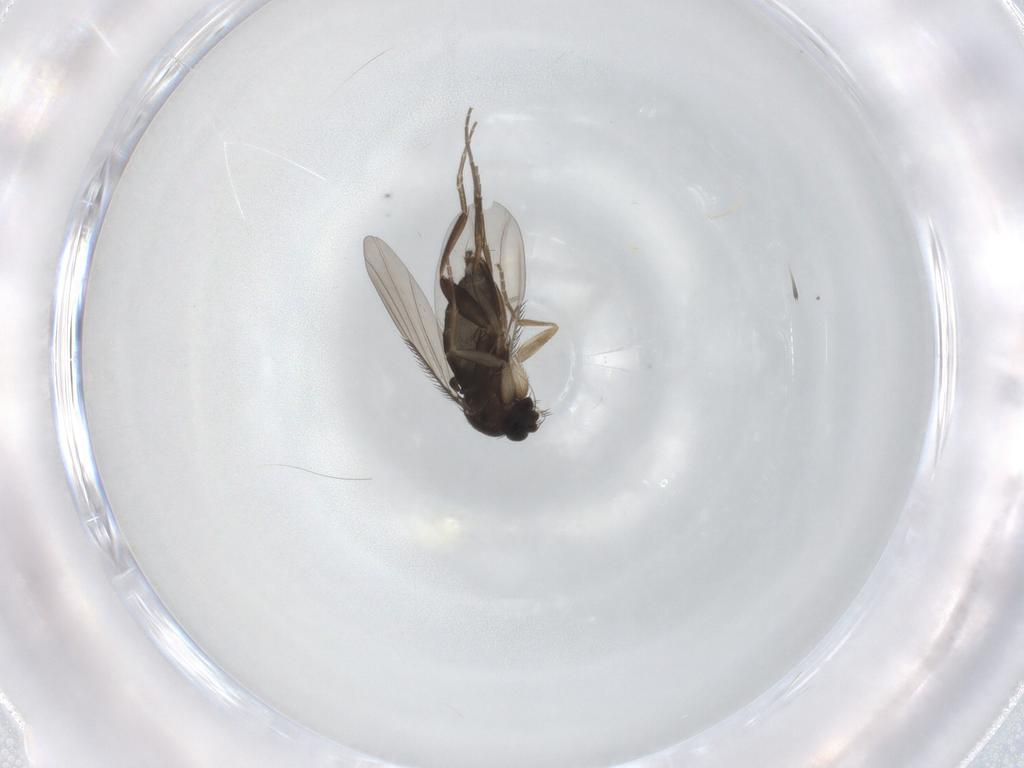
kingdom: Animalia
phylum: Arthropoda
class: Insecta
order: Diptera
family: Phoridae
